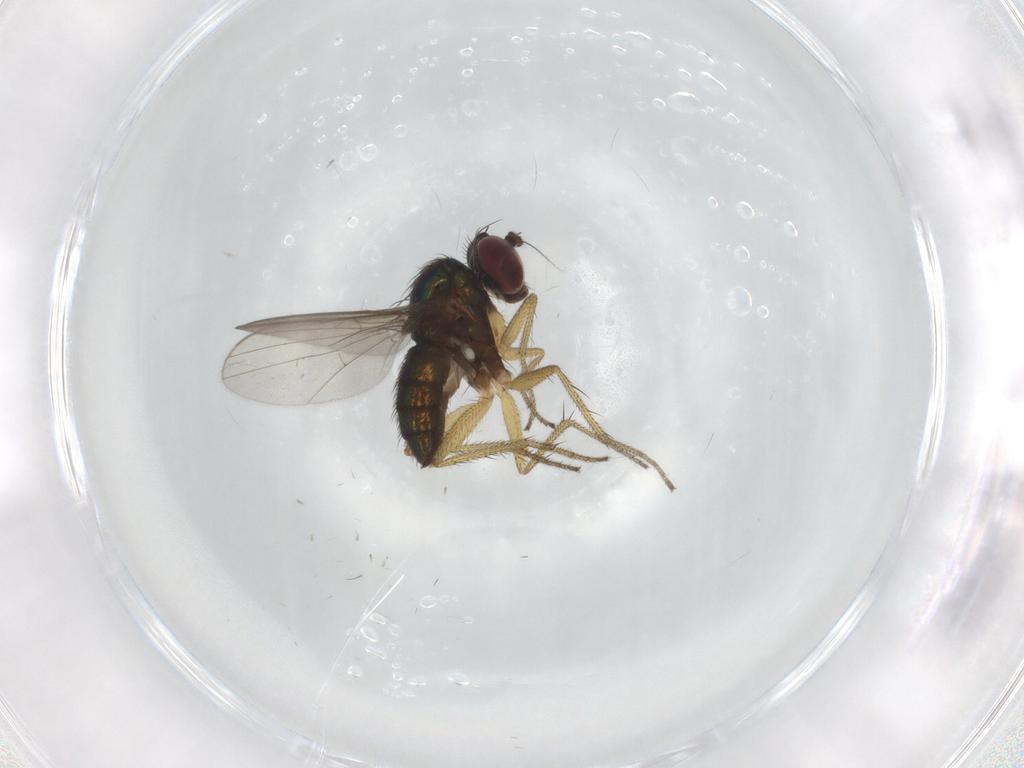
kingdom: Animalia
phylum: Arthropoda
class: Insecta
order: Diptera
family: Dolichopodidae
